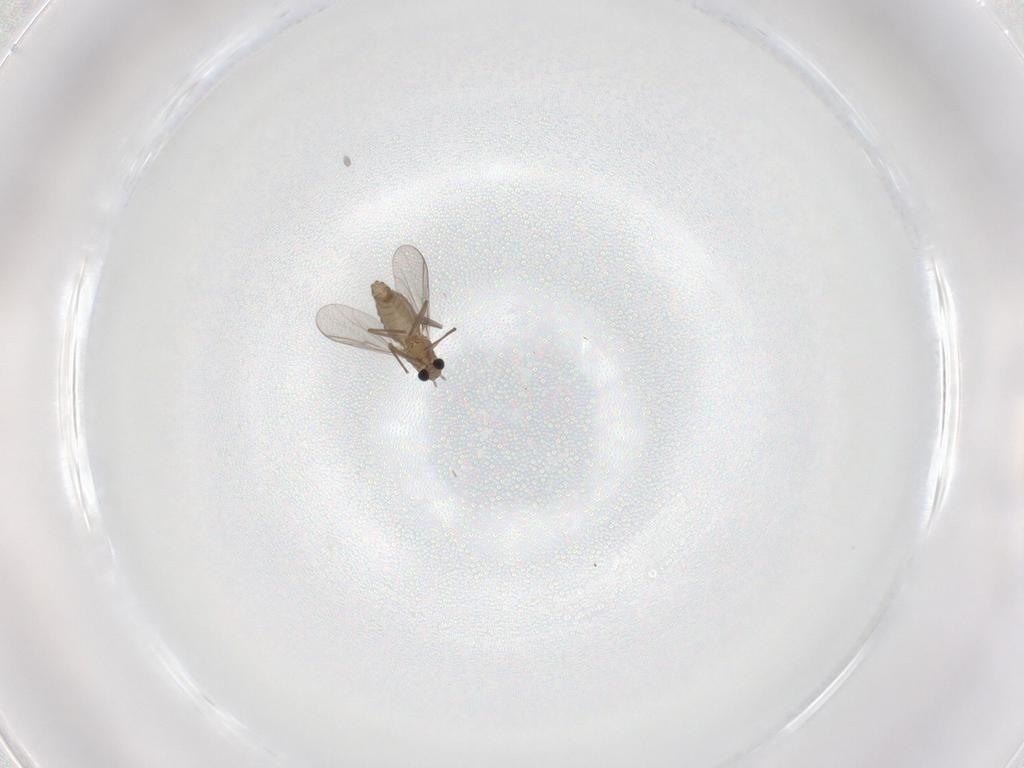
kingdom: Animalia
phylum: Arthropoda
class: Insecta
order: Diptera
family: Chironomidae
